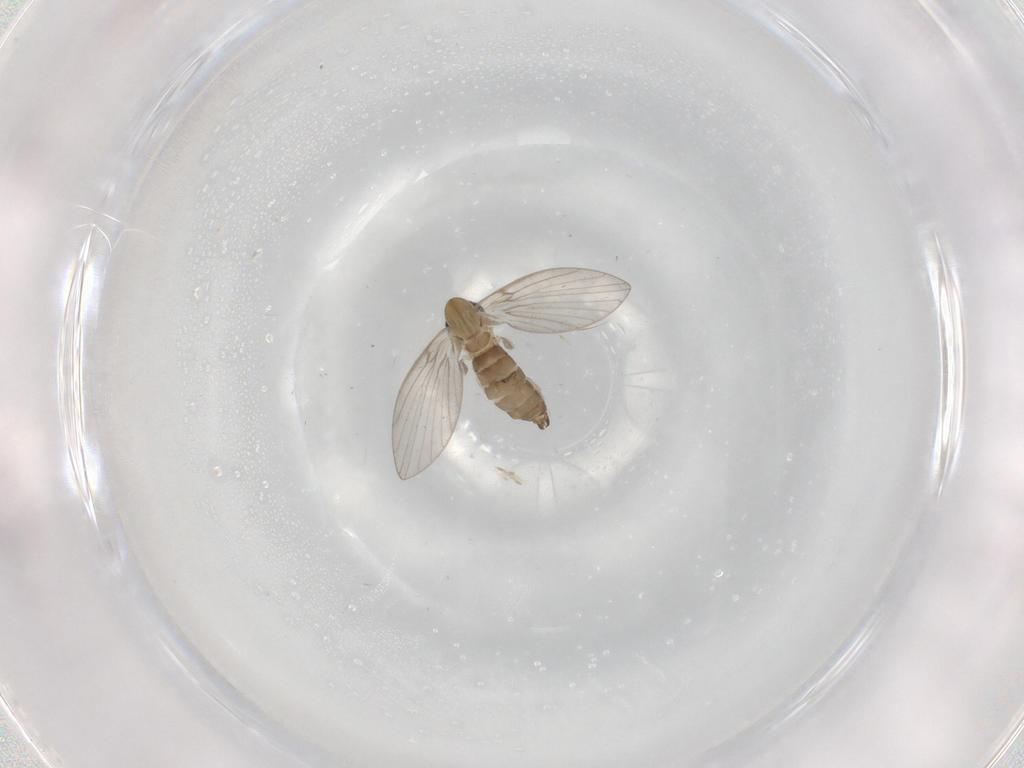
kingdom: Animalia
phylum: Arthropoda
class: Insecta
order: Diptera
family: Psychodidae
